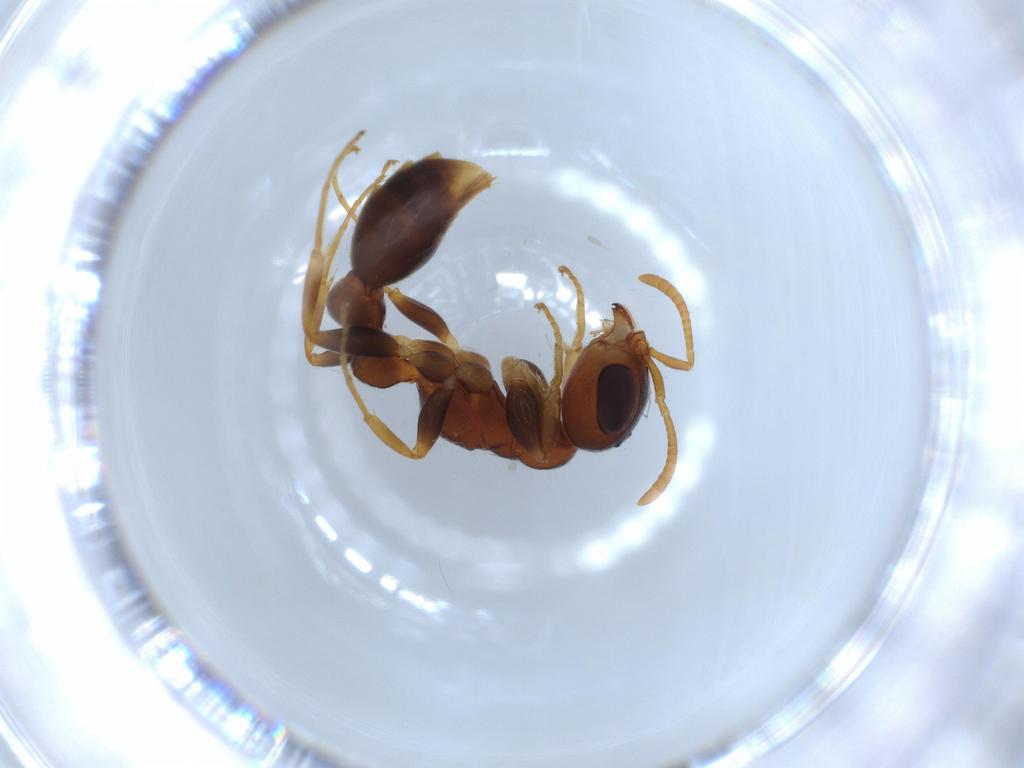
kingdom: Animalia
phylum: Arthropoda
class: Insecta
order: Hymenoptera
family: Formicidae
